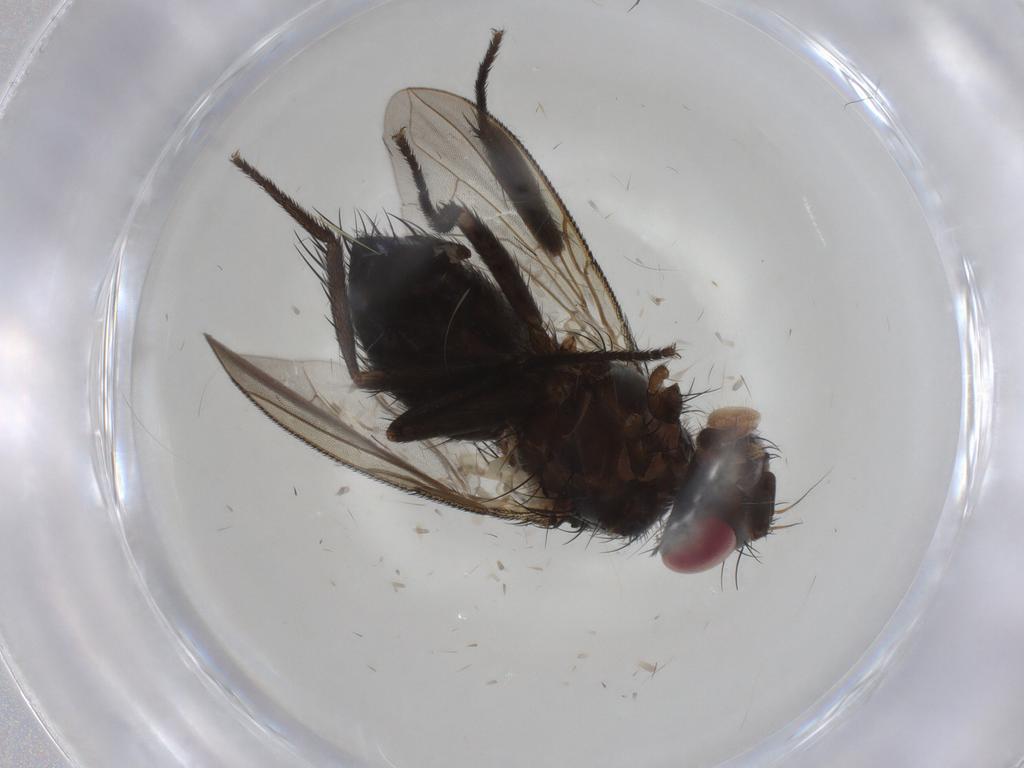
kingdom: Animalia
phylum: Arthropoda
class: Insecta
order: Diptera
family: Tachinidae
